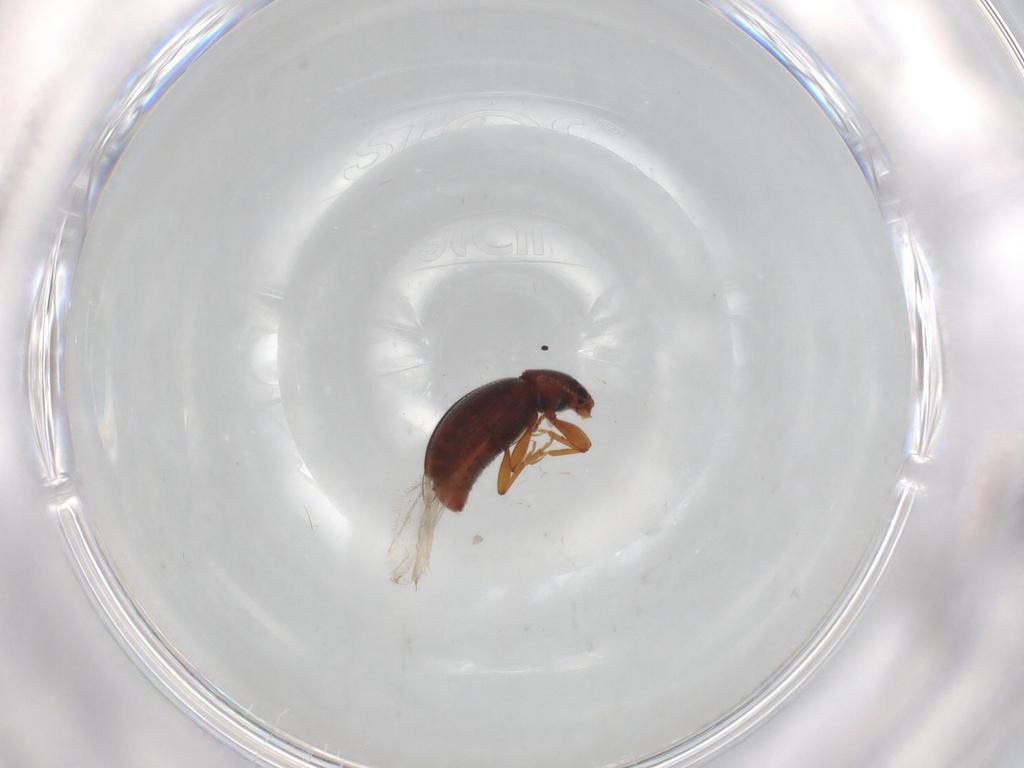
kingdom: Animalia
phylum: Arthropoda
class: Insecta
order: Coleoptera
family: Latridiidae
